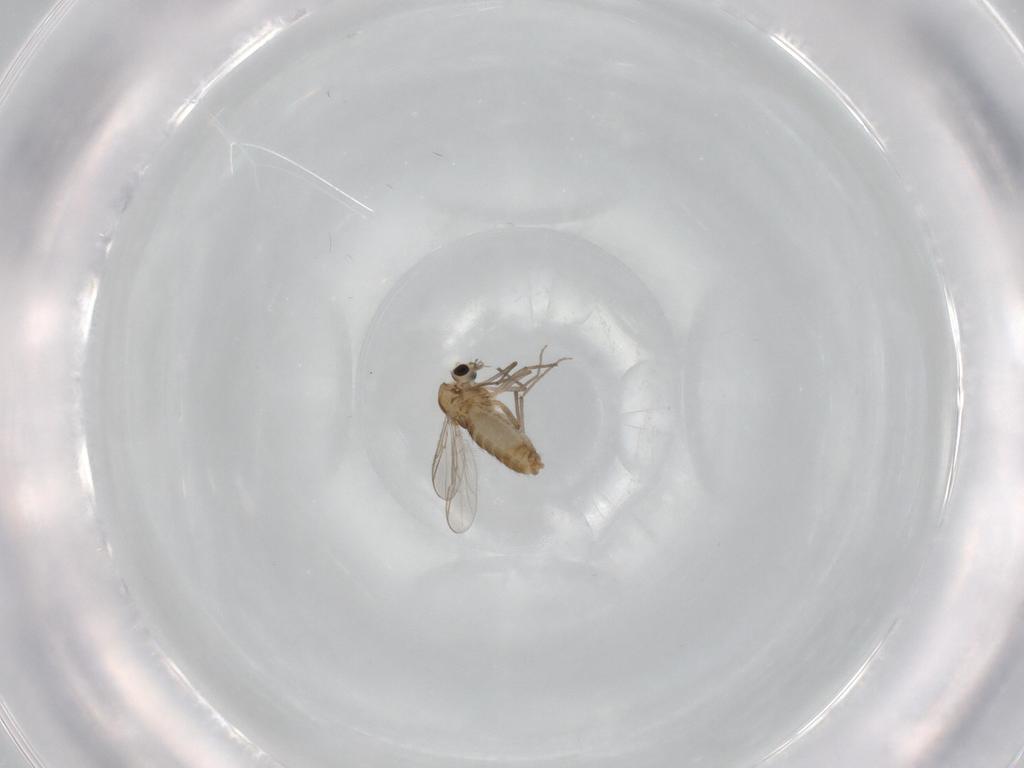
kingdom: Animalia
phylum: Arthropoda
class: Insecta
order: Diptera
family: Chironomidae
